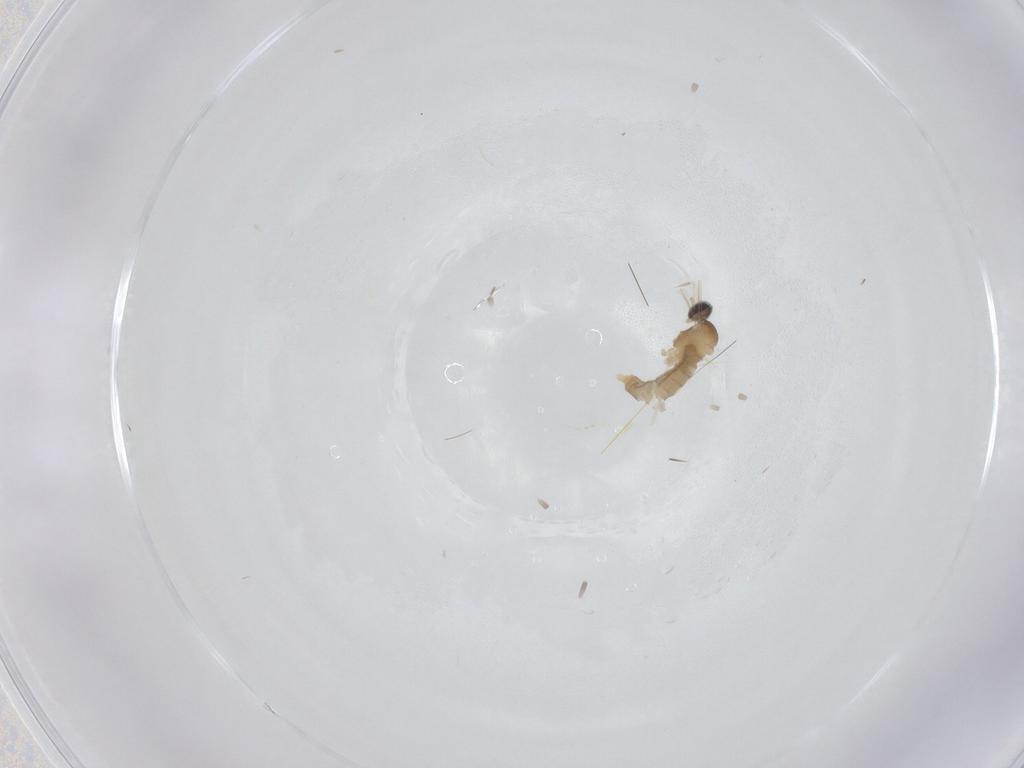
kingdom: Animalia
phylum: Arthropoda
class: Insecta
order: Diptera
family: Cecidomyiidae
